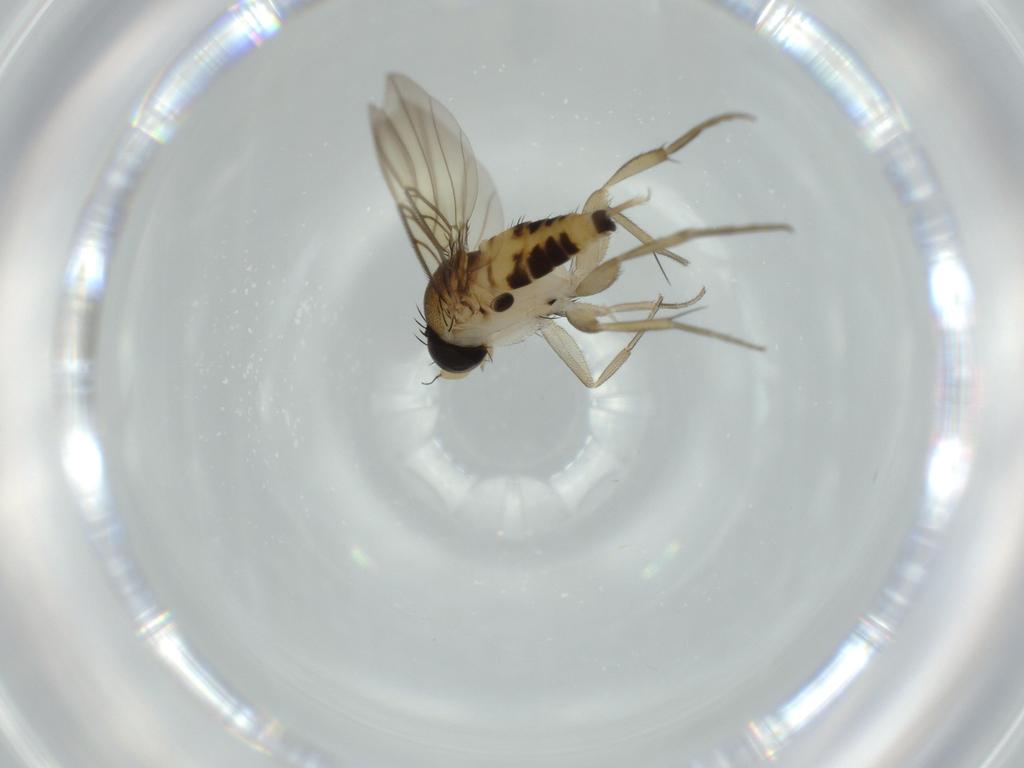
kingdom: Animalia
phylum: Arthropoda
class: Insecta
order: Diptera
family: Phoridae
